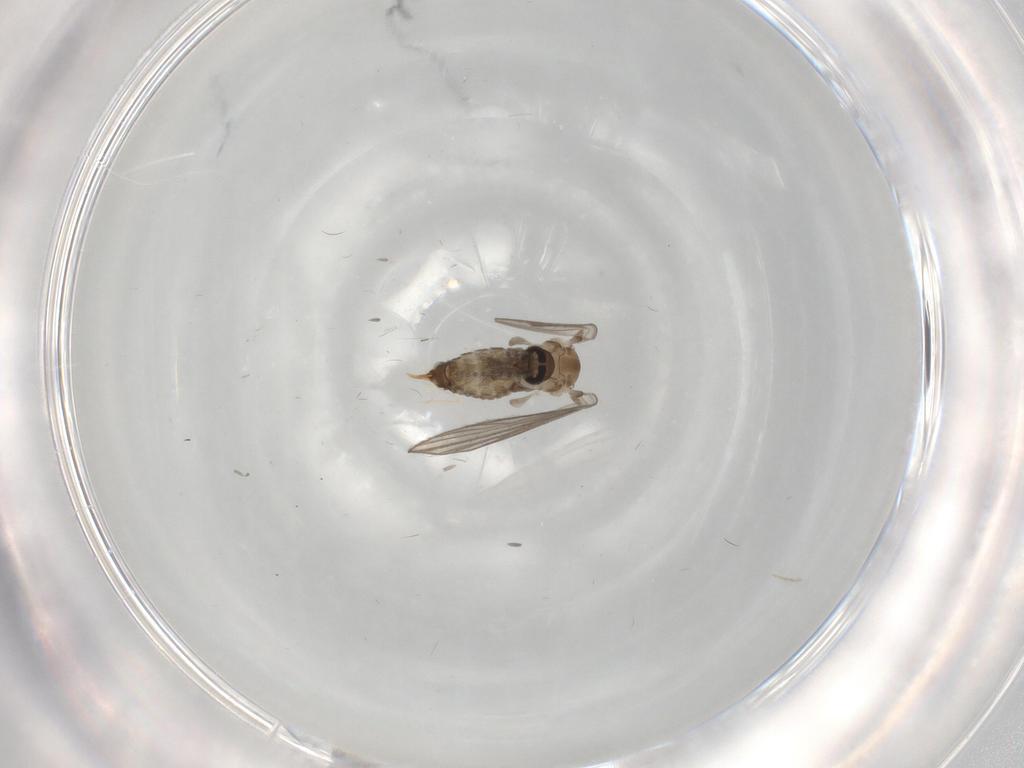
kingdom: Animalia
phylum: Arthropoda
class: Insecta
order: Diptera
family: Psychodidae
